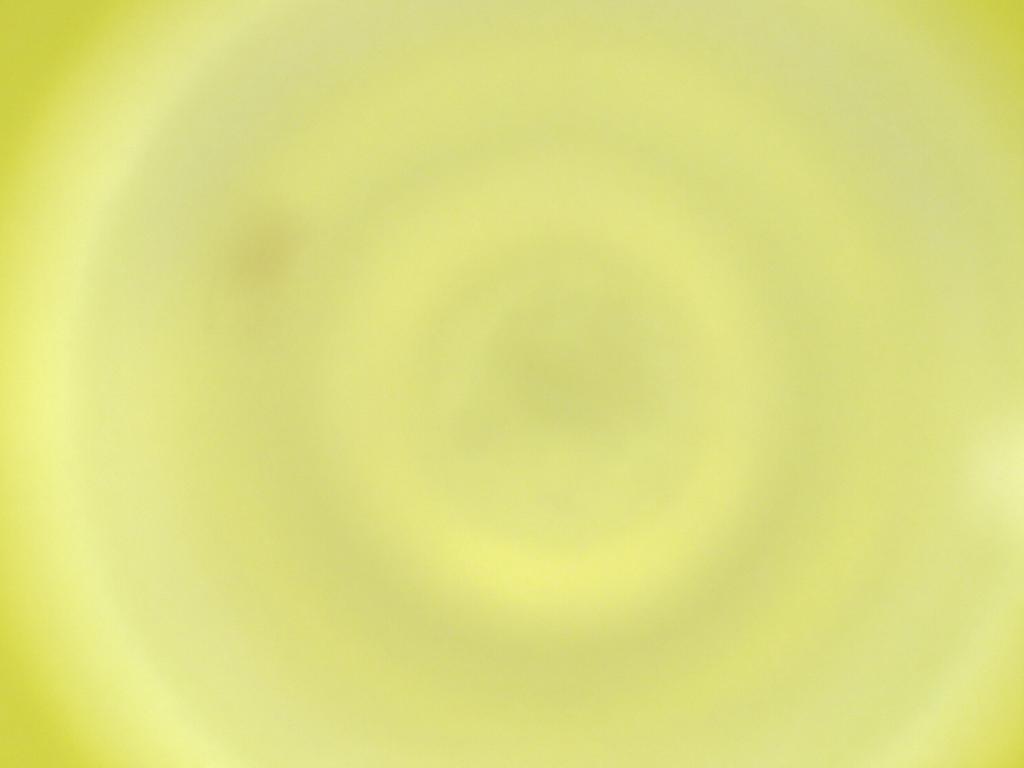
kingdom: Animalia
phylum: Arthropoda
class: Insecta
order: Diptera
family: Cecidomyiidae
